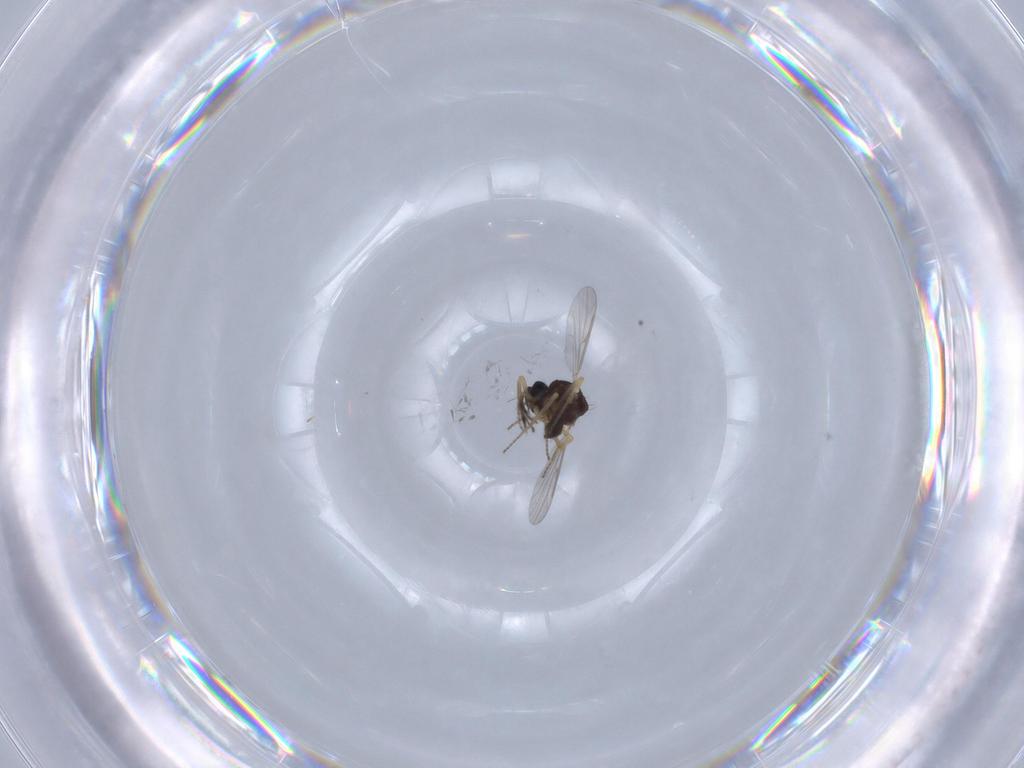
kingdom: Animalia
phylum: Arthropoda
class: Insecta
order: Diptera
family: Ceratopogonidae
